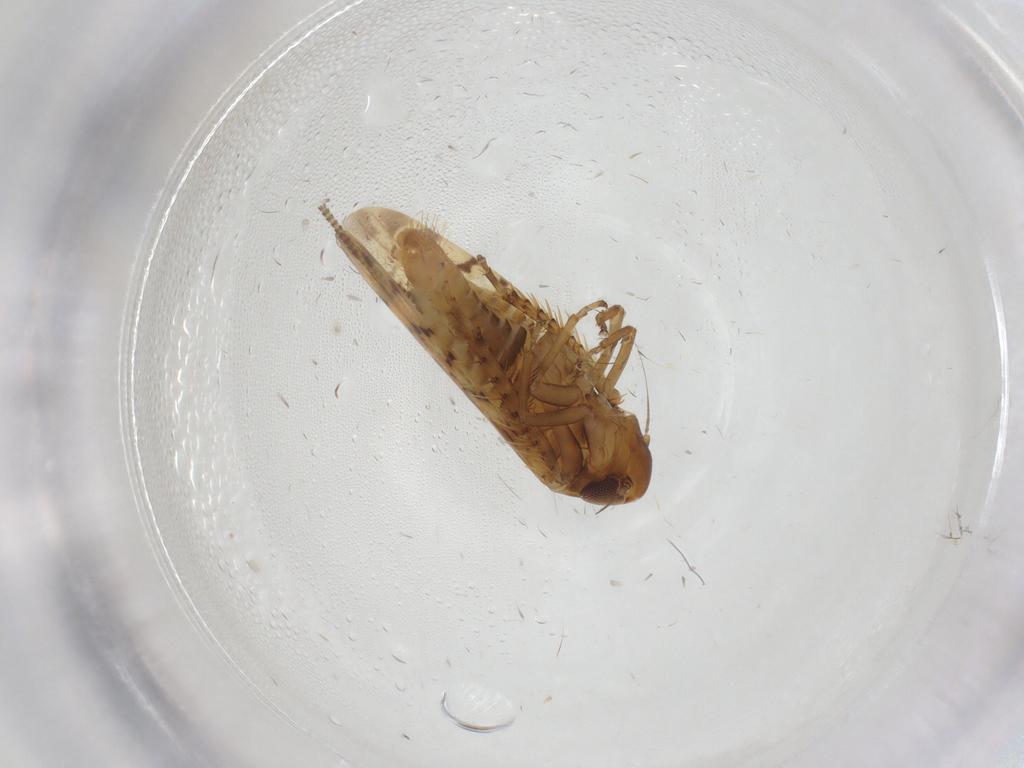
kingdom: Animalia
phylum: Arthropoda
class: Insecta
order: Hemiptera
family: Cicadellidae
